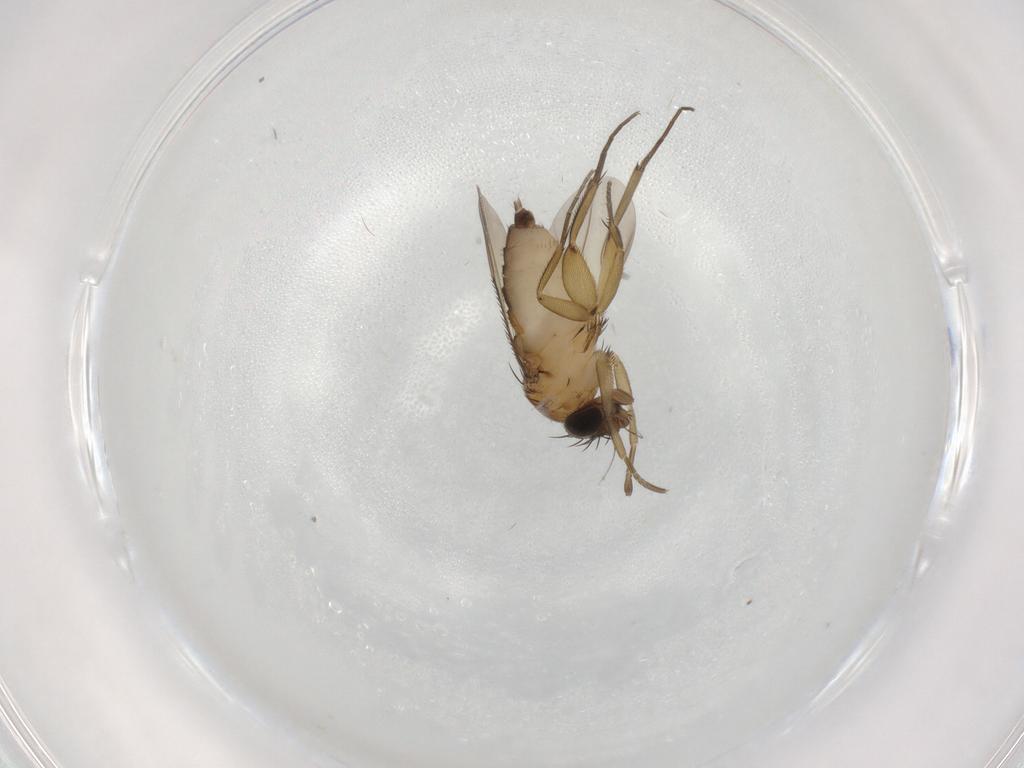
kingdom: Animalia
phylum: Arthropoda
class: Insecta
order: Diptera
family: Phoridae
